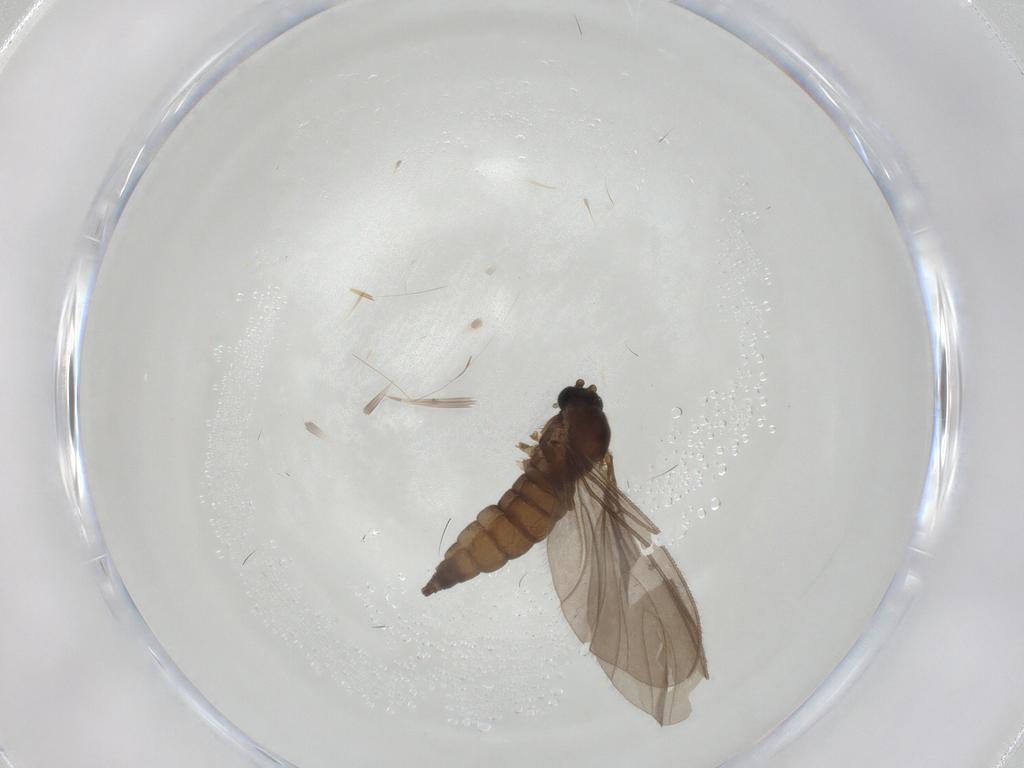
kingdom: Animalia
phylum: Arthropoda
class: Insecta
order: Diptera
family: Sciaridae
